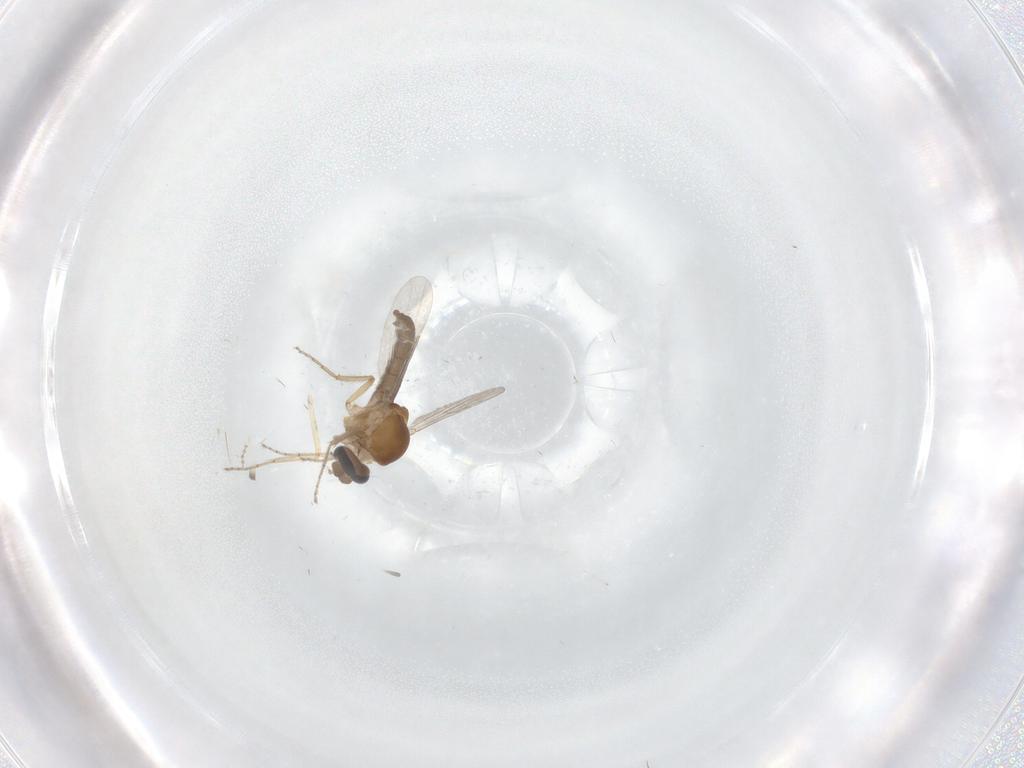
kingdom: Animalia
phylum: Arthropoda
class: Insecta
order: Diptera
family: Ceratopogonidae
